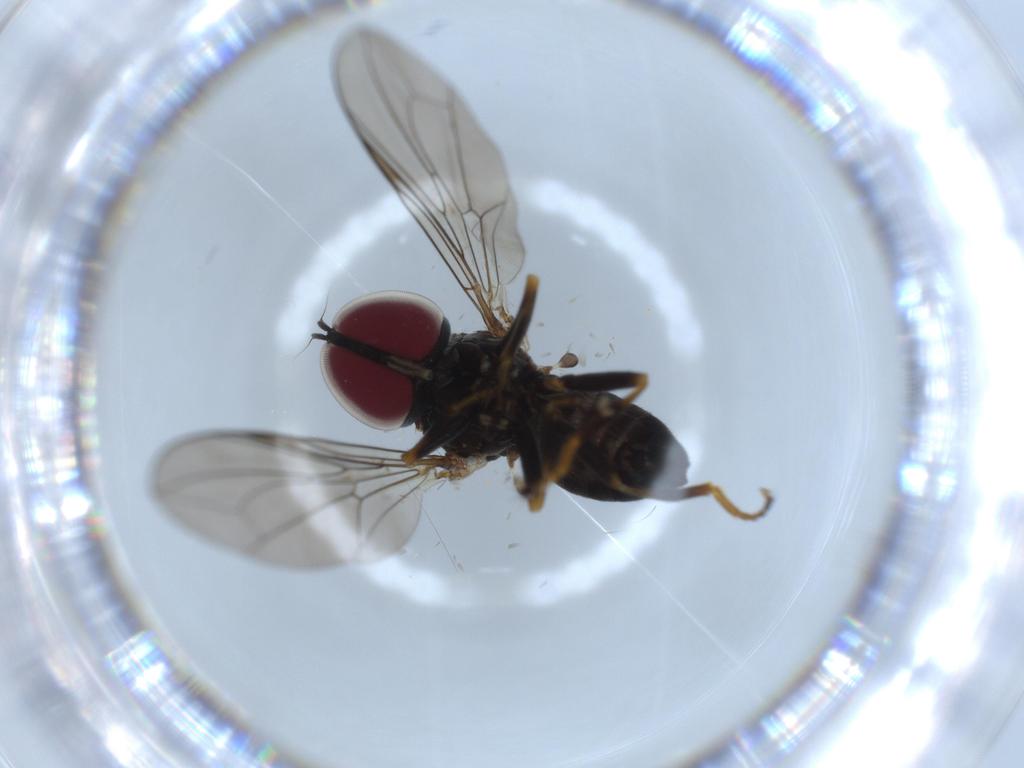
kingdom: Animalia
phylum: Arthropoda
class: Insecta
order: Diptera
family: Pipunculidae
